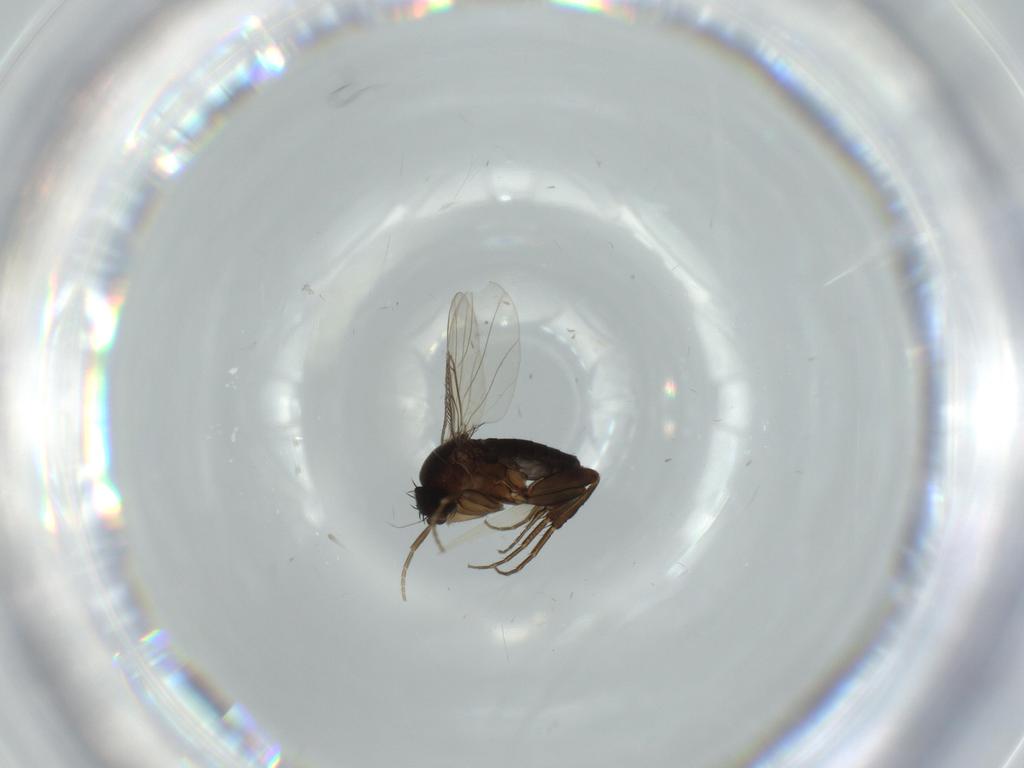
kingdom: Animalia
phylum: Arthropoda
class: Insecta
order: Diptera
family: Phoridae
